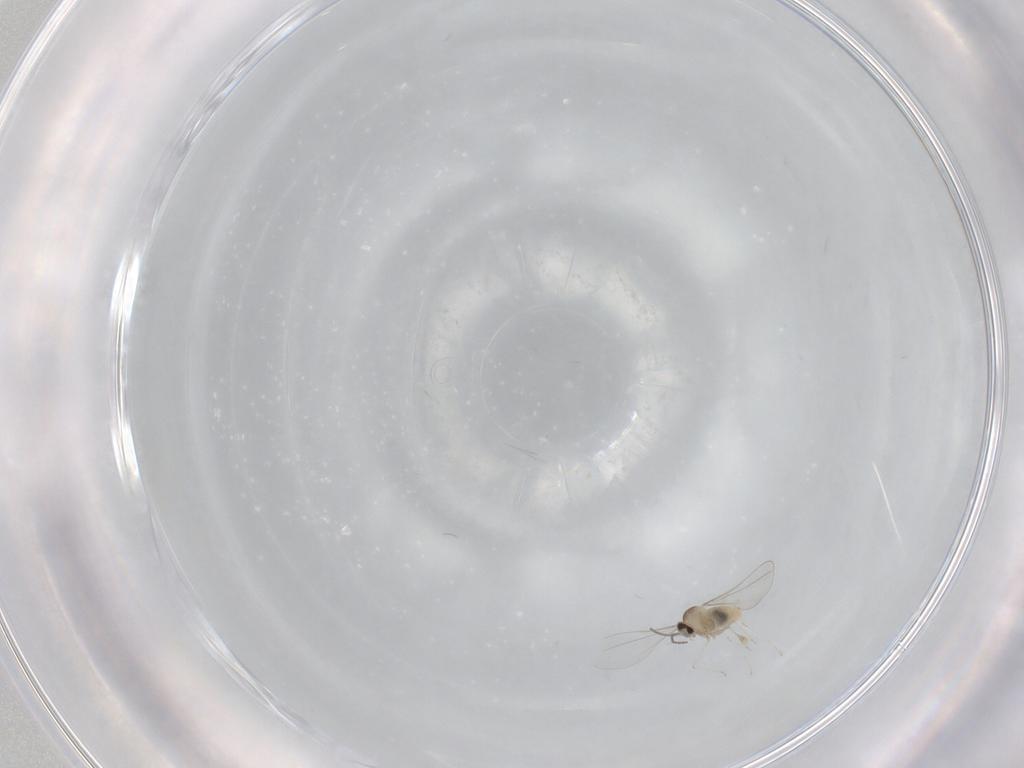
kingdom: Animalia
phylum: Arthropoda
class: Insecta
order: Diptera
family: Cecidomyiidae
